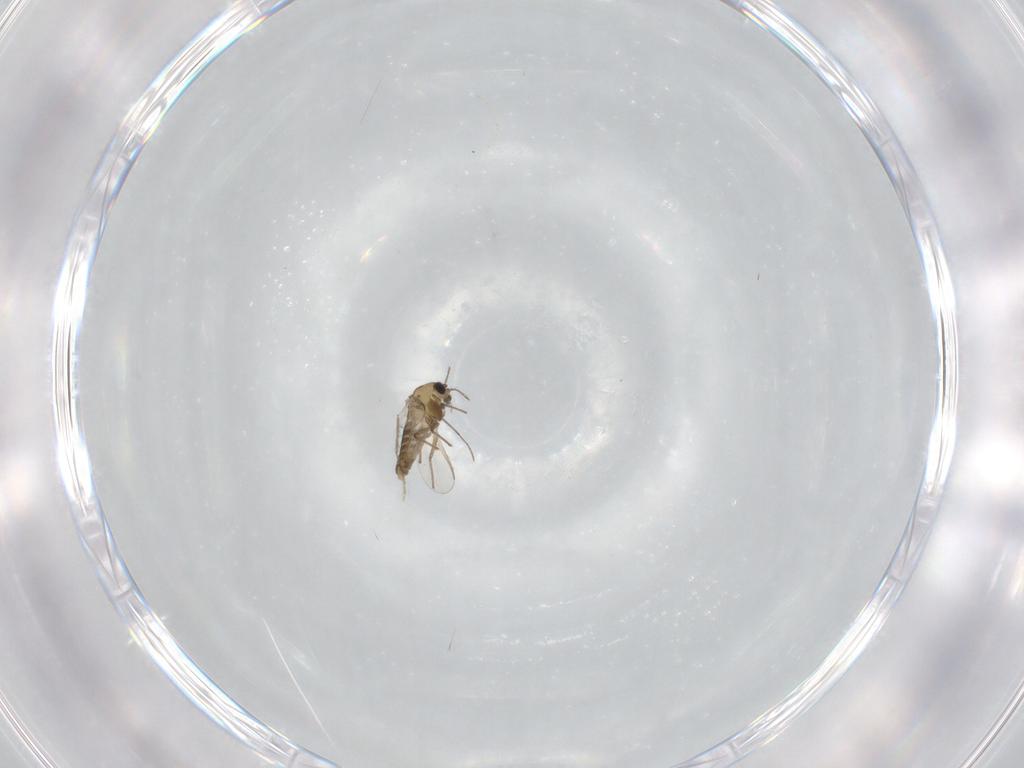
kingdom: Animalia
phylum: Arthropoda
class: Insecta
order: Diptera
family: Chironomidae
